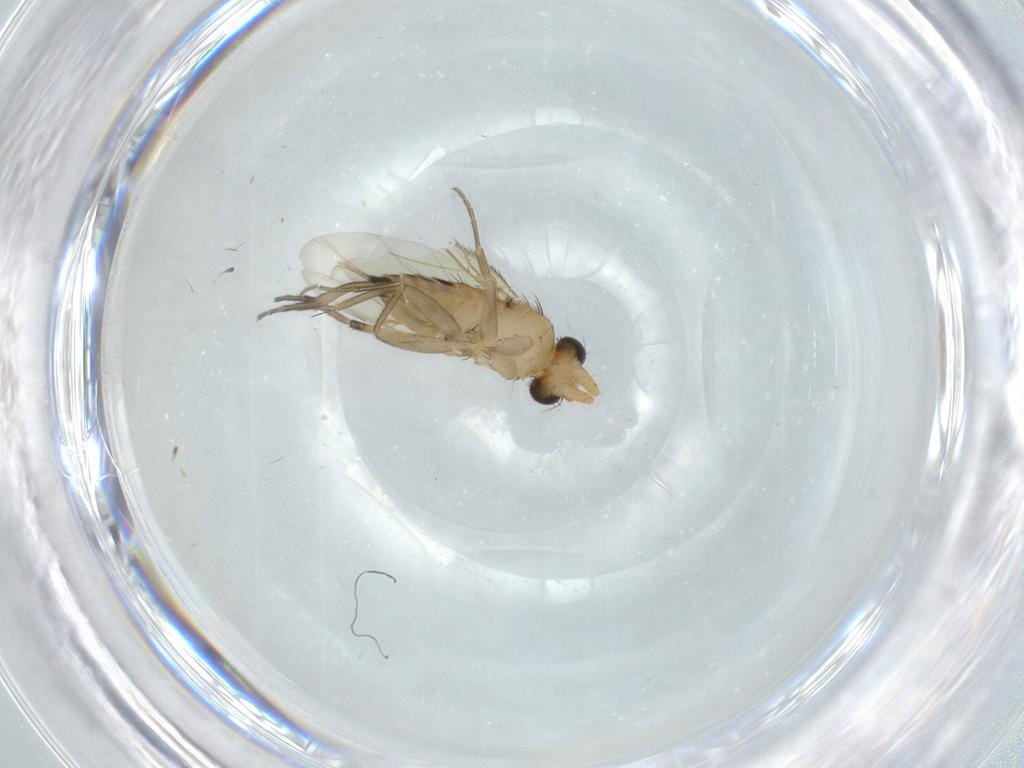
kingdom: Animalia
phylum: Arthropoda
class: Insecta
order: Diptera
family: Phoridae
